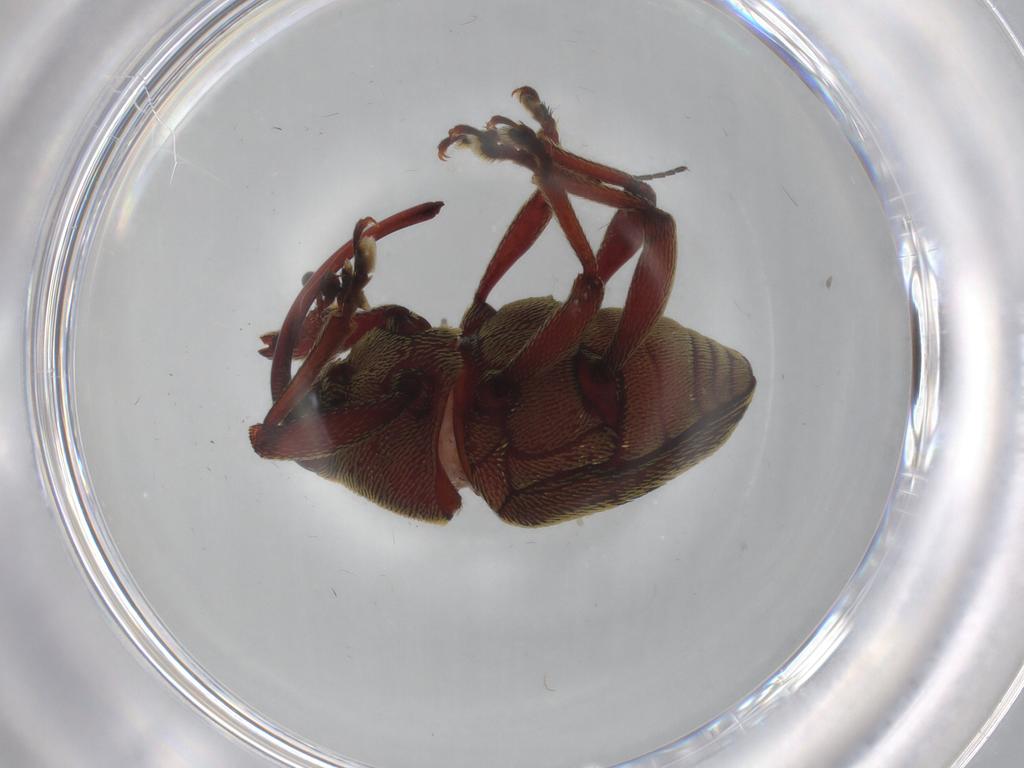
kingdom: Animalia
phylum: Arthropoda
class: Insecta
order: Coleoptera
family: Curculionidae
